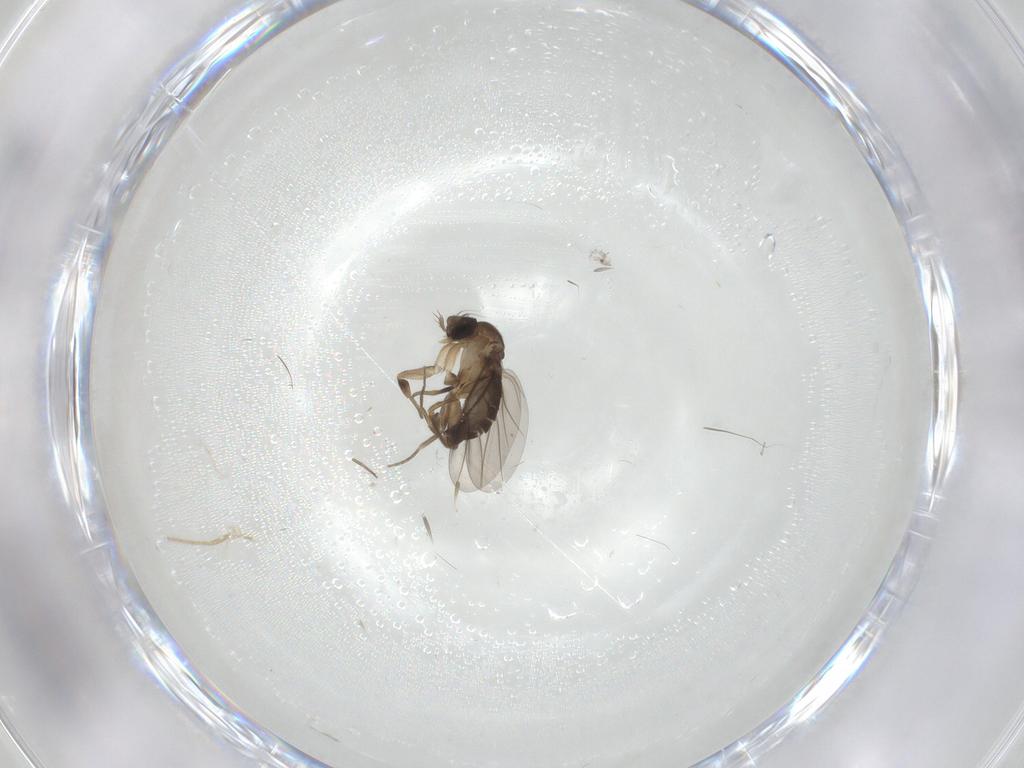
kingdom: Animalia
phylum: Arthropoda
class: Insecta
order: Diptera
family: Phoridae
